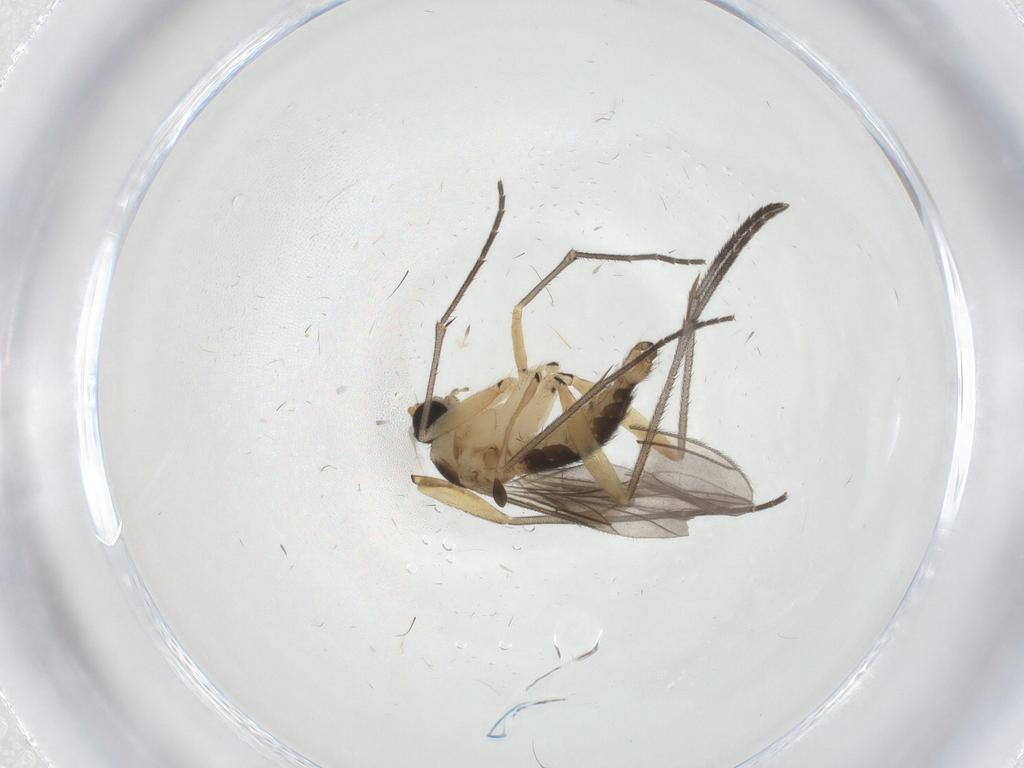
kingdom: Animalia
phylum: Arthropoda
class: Insecta
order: Diptera
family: Sciaridae
